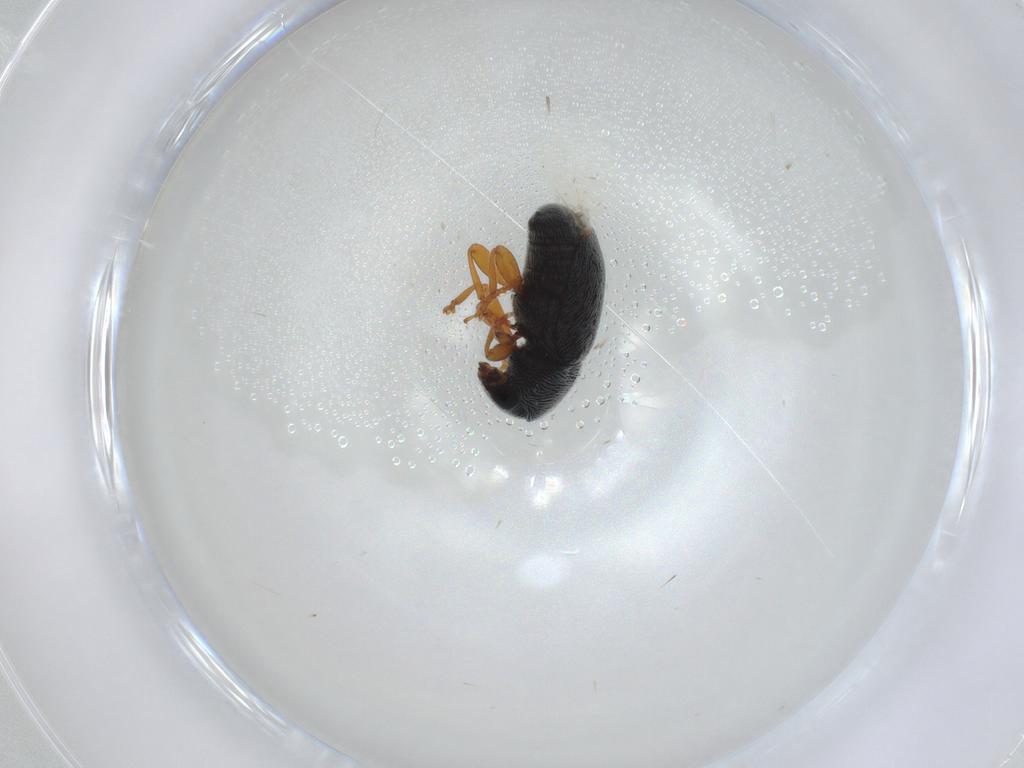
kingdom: Animalia
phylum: Arthropoda
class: Insecta
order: Coleoptera
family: Anthribidae
